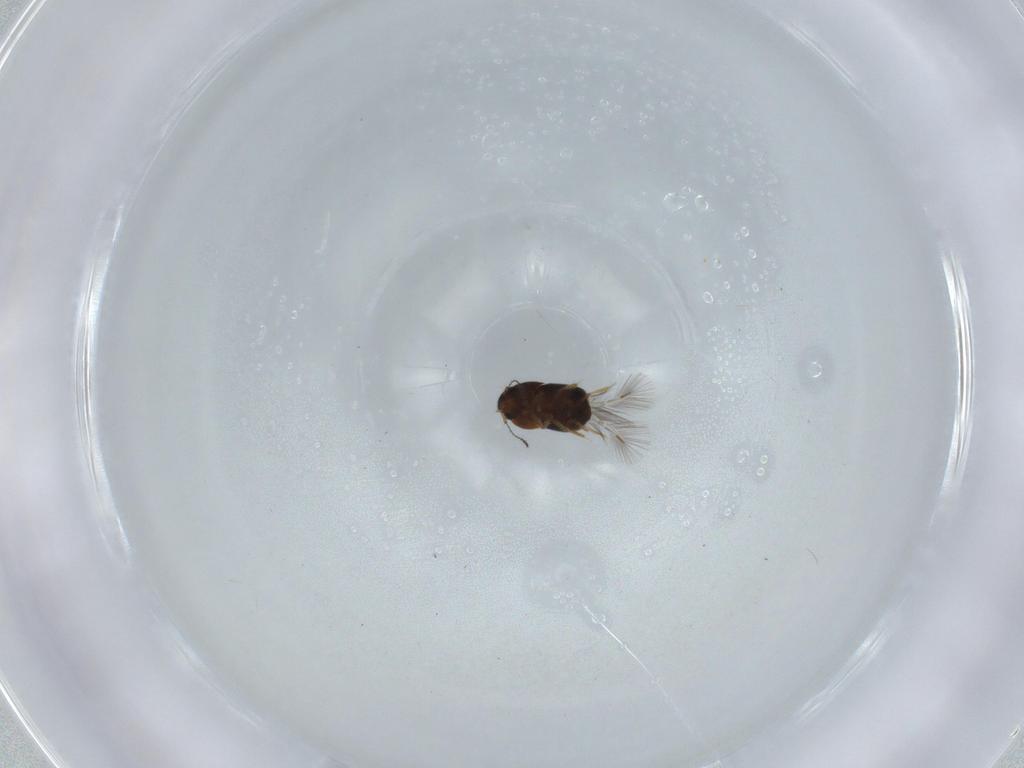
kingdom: Animalia
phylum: Arthropoda
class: Insecta
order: Coleoptera
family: Ptiliidae
